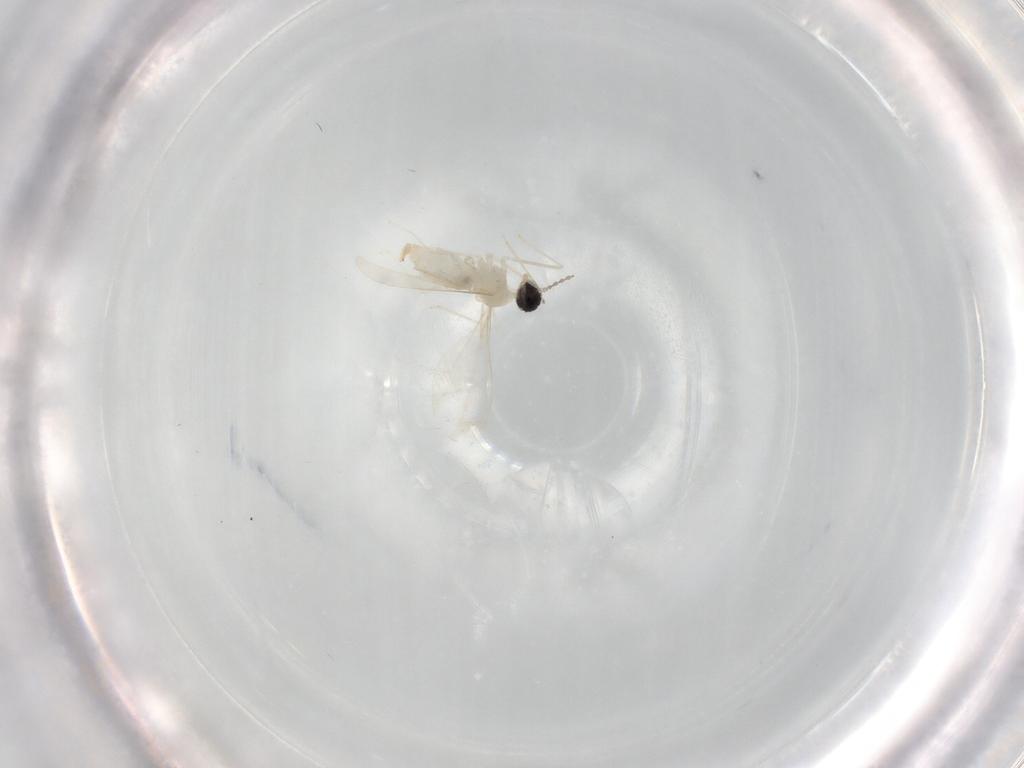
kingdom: Animalia
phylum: Arthropoda
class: Insecta
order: Diptera
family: Cecidomyiidae
